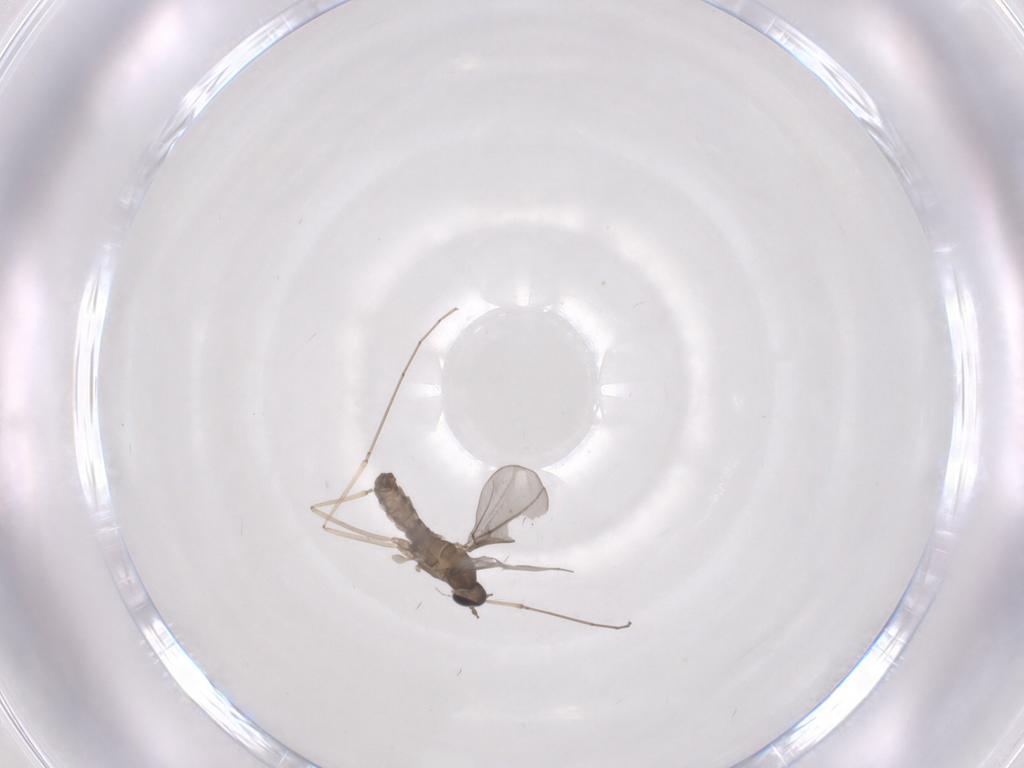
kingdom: Animalia
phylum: Arthropoda
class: Insecta
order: Diptera
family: Cecidomyiidae
